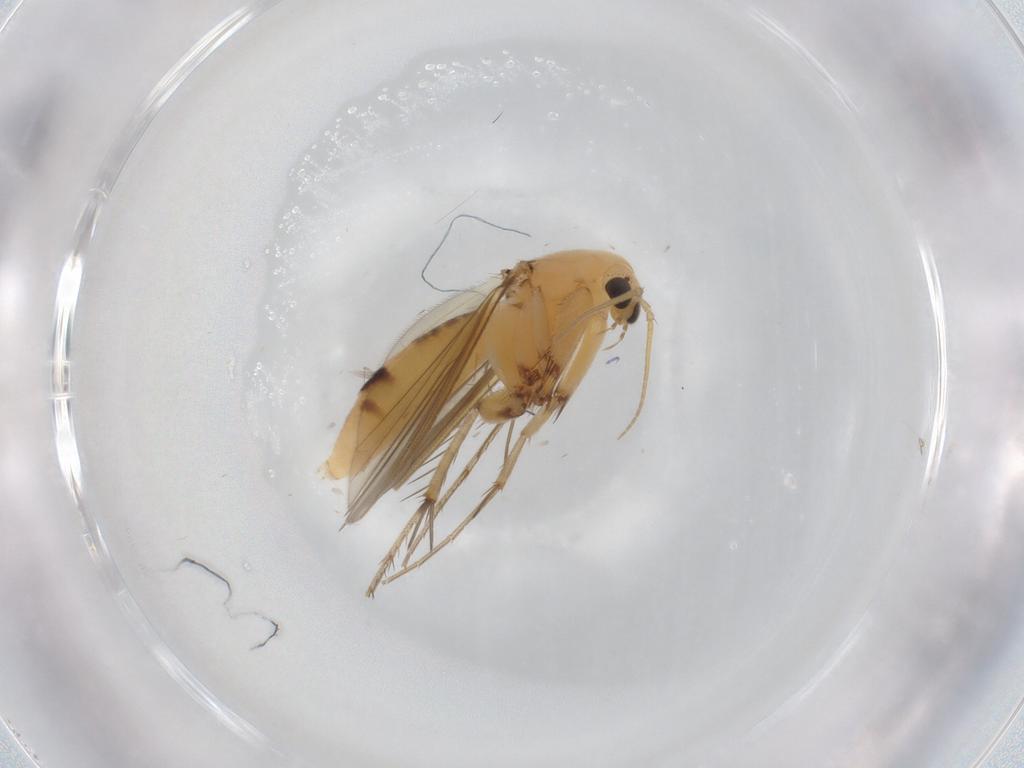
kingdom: Animalia
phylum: Arthropoda
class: Insecta
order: Diptera
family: Mycetophilidae
